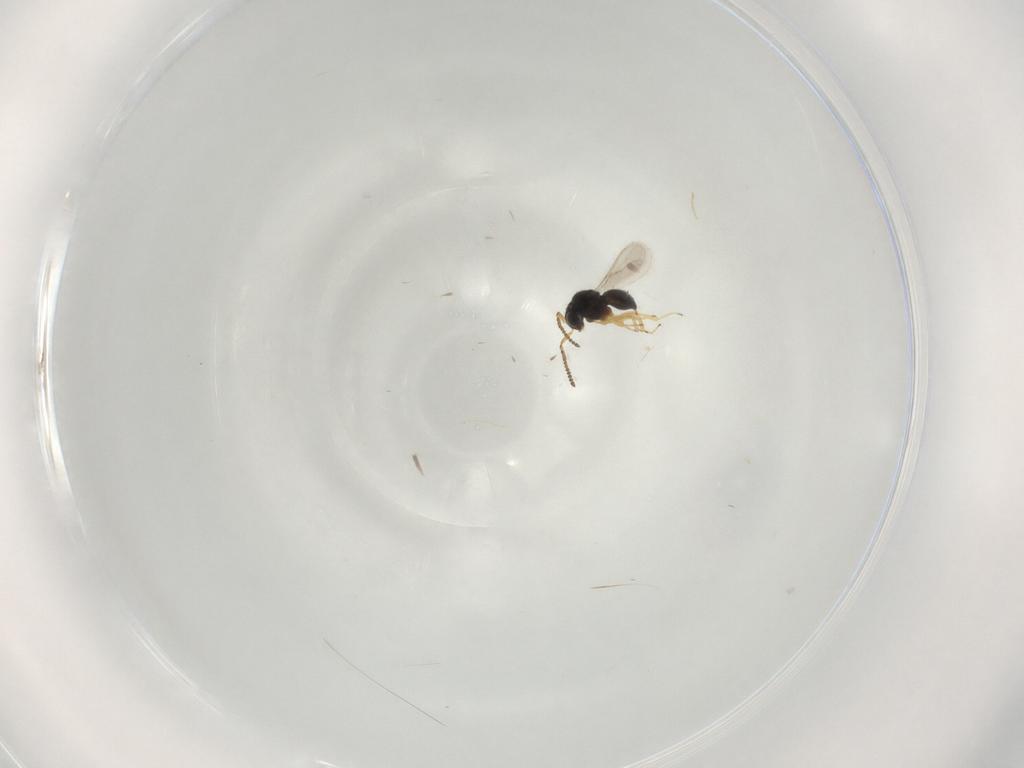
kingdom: Animalia
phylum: Arthropoda
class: Insecta
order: Hymenoptera
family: Scelionidae
